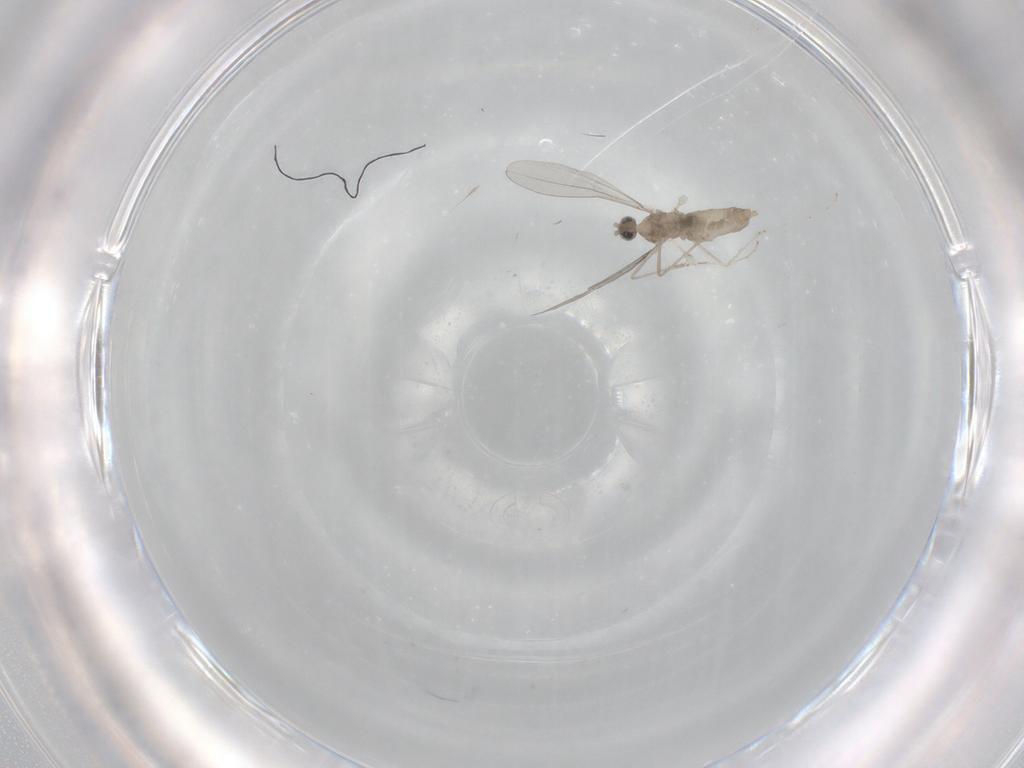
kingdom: Animalia
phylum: Arthropoda
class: Insecta
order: Diptera
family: Cecidomyiidae
